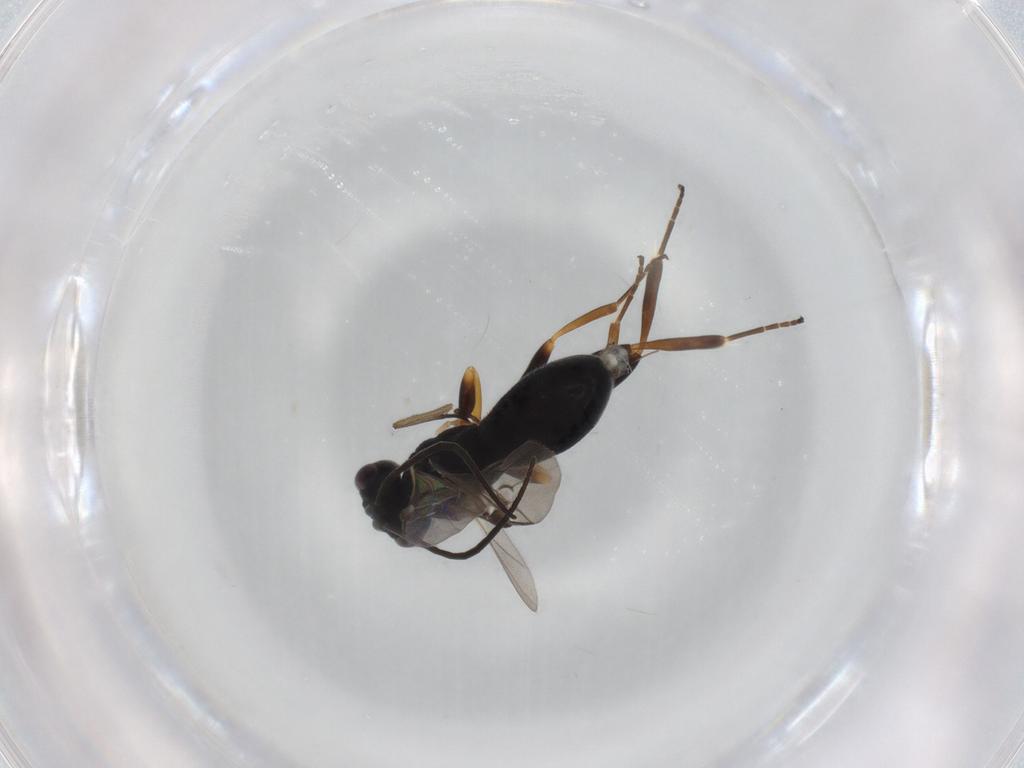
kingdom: Animalia
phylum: Arthropoda
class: Insecta
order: Hymenoptera
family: Braconidae
